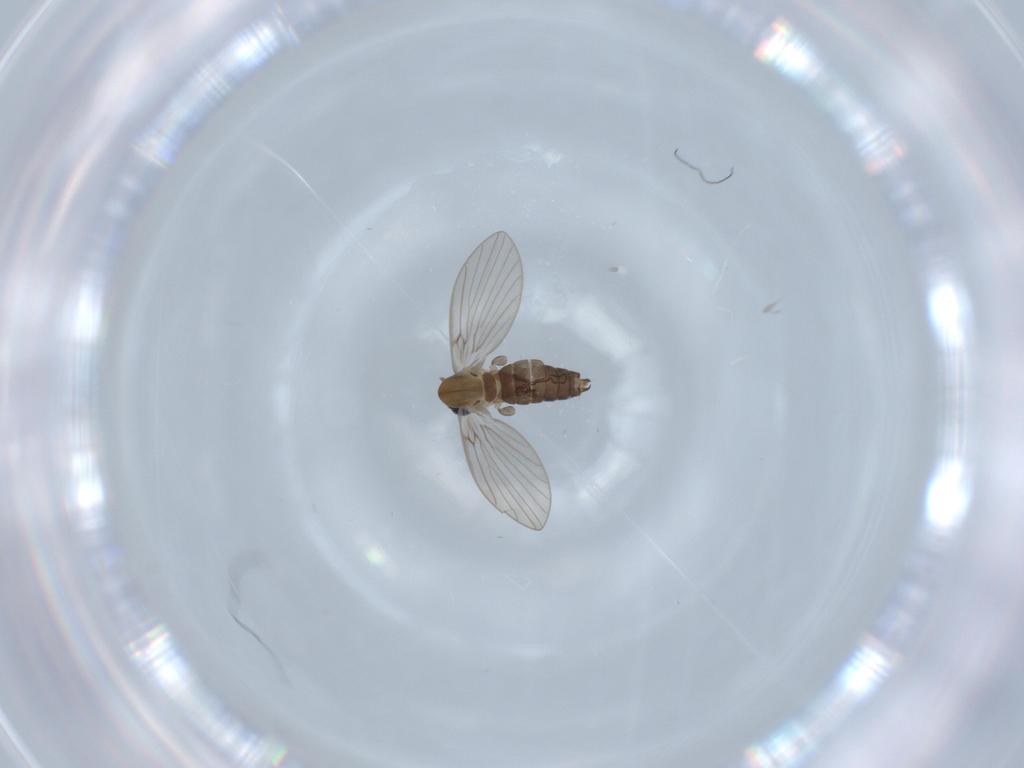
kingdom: Animalia
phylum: Arthropoda
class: Insecta
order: Diptera
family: Psychodidae
